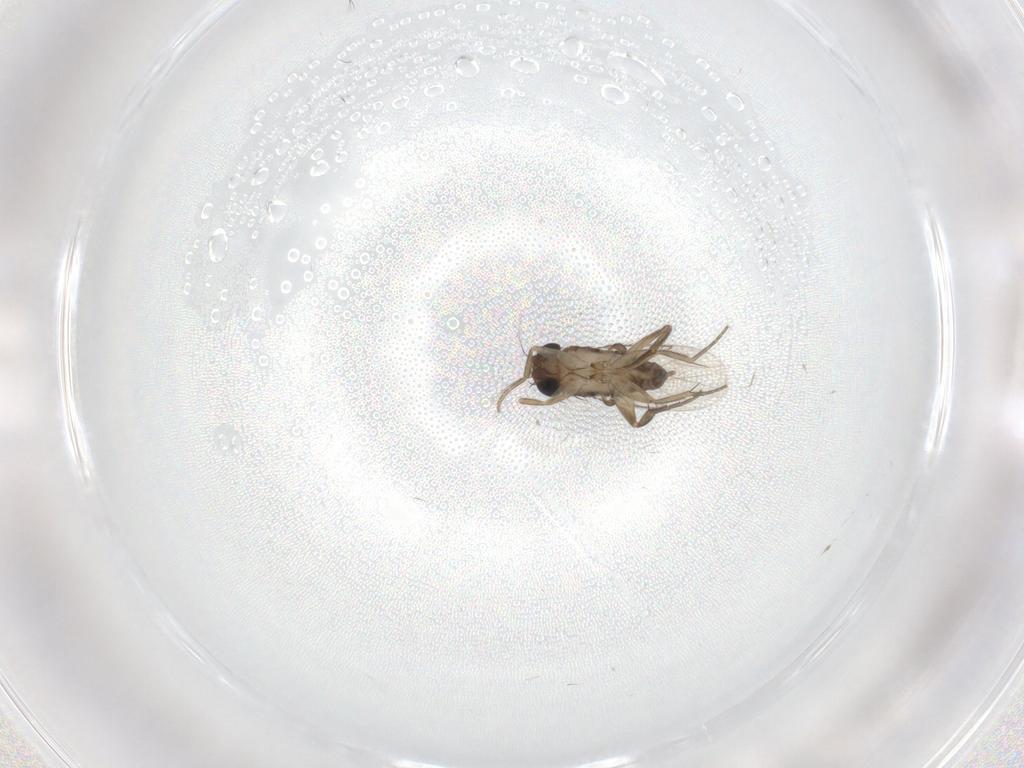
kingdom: Animalia
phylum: Arthropoda
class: Insecta
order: Diptera
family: Phoridae
